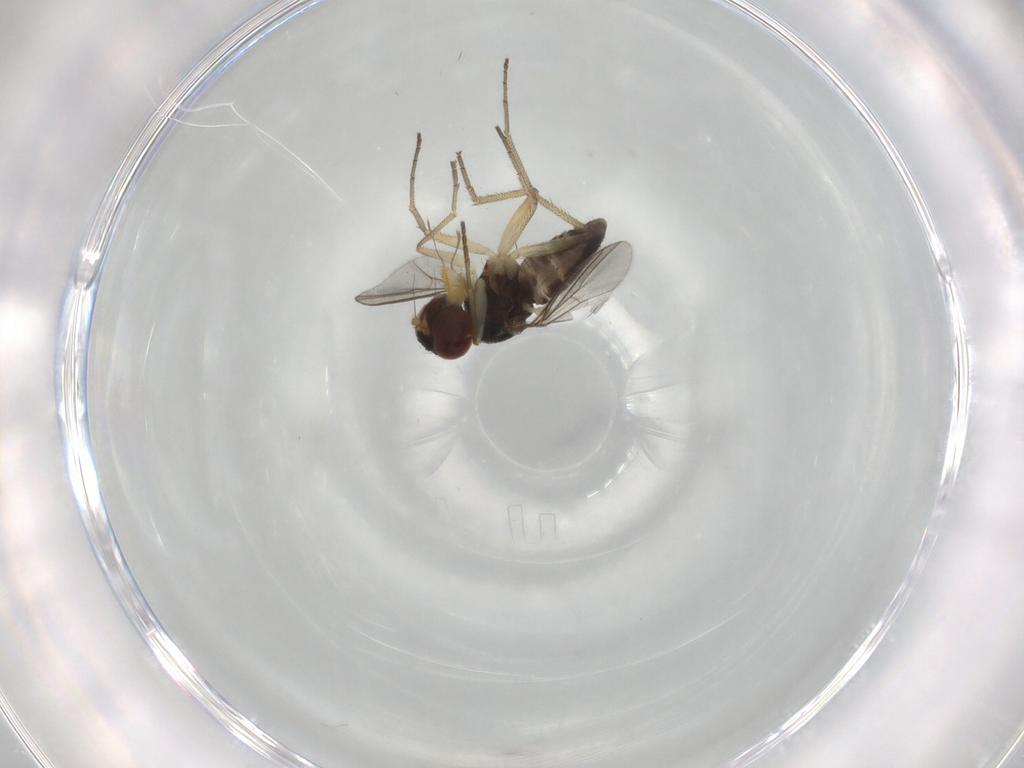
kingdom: Animalia
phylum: Arthropoda
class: Insecta
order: Diptera
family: Dolichopodidae
